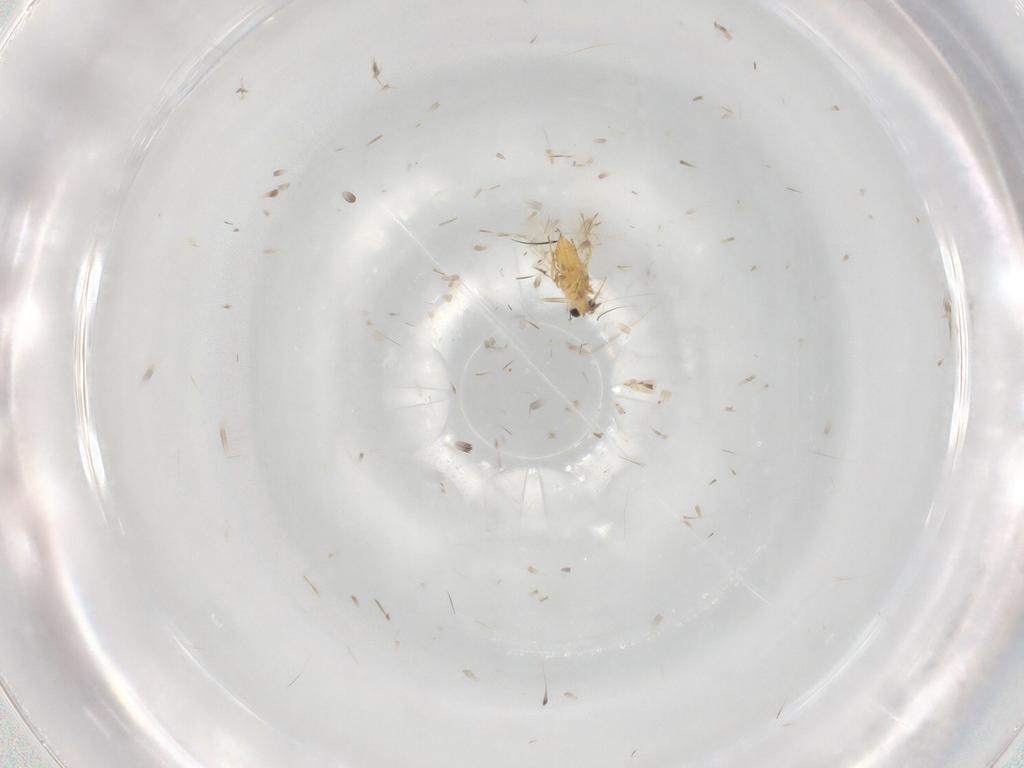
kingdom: Animalia
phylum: Arthropoda
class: Insecta
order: Hymenoptera
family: Trichogrammatidae
